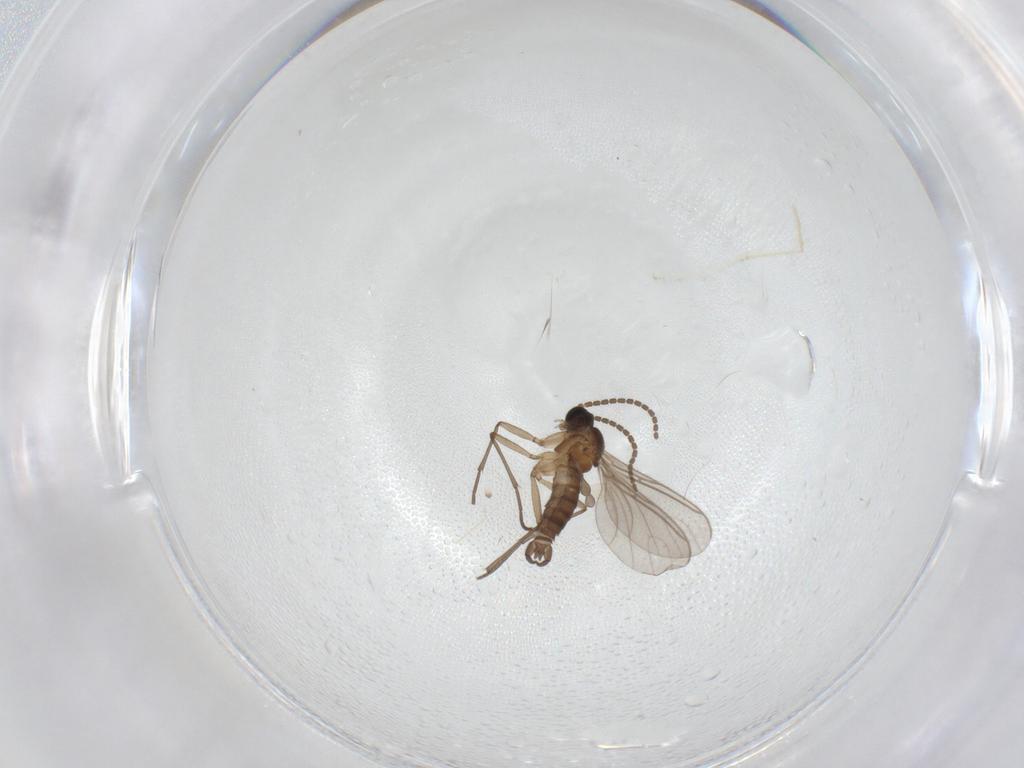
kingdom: Animalia
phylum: Arthropoda
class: Insecta
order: Diptera
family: Sciaridae
